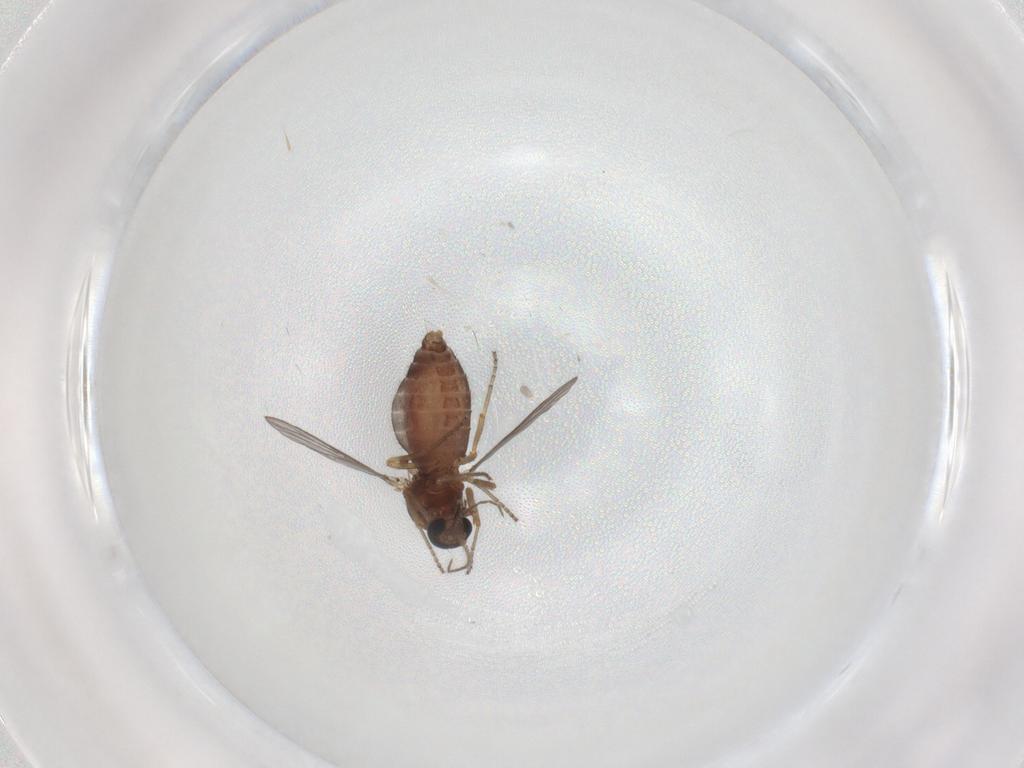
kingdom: Animalia
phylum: Arthropoda
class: Insecta
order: Diptera
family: Ceratopogonidae
